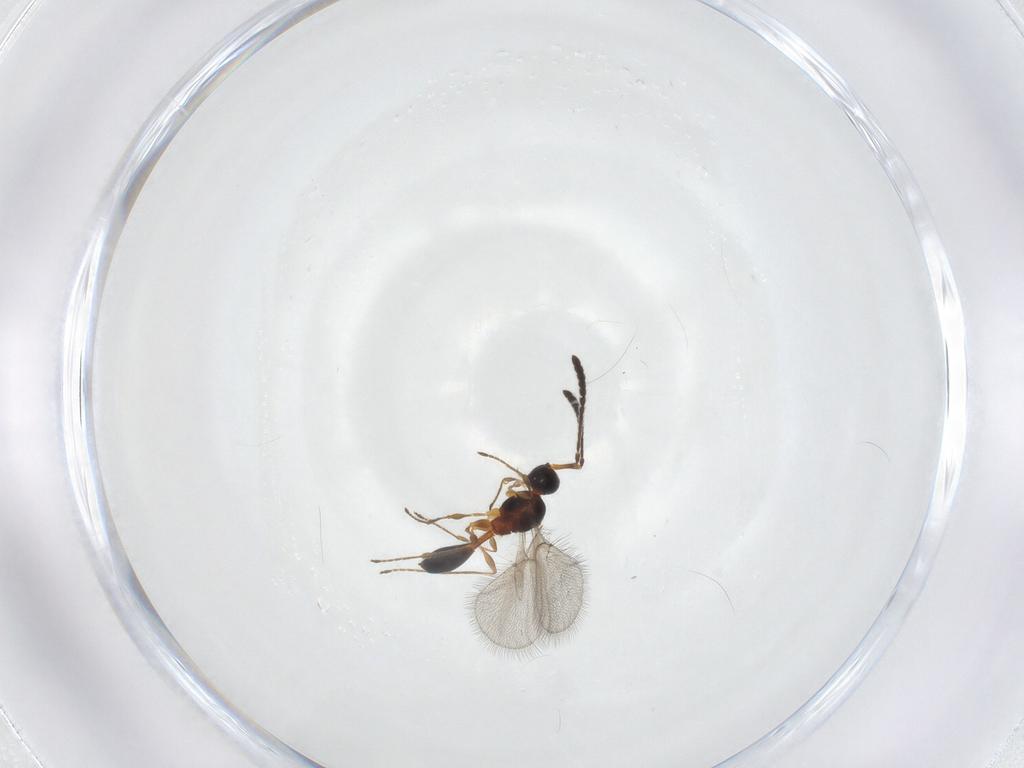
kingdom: Animalia
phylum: Arthropoda
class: Insecta
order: Hymenoptera
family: Diapriidae
